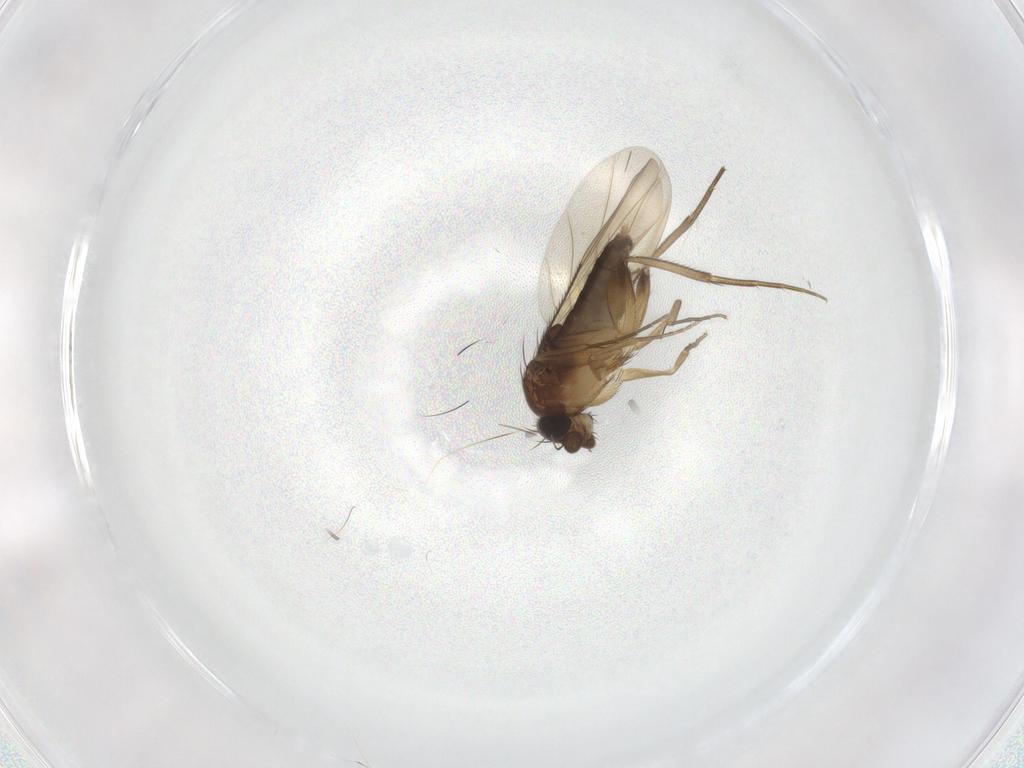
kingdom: Animalia
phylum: Arthropoda
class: Insecta
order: Diptera
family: Phoridae
